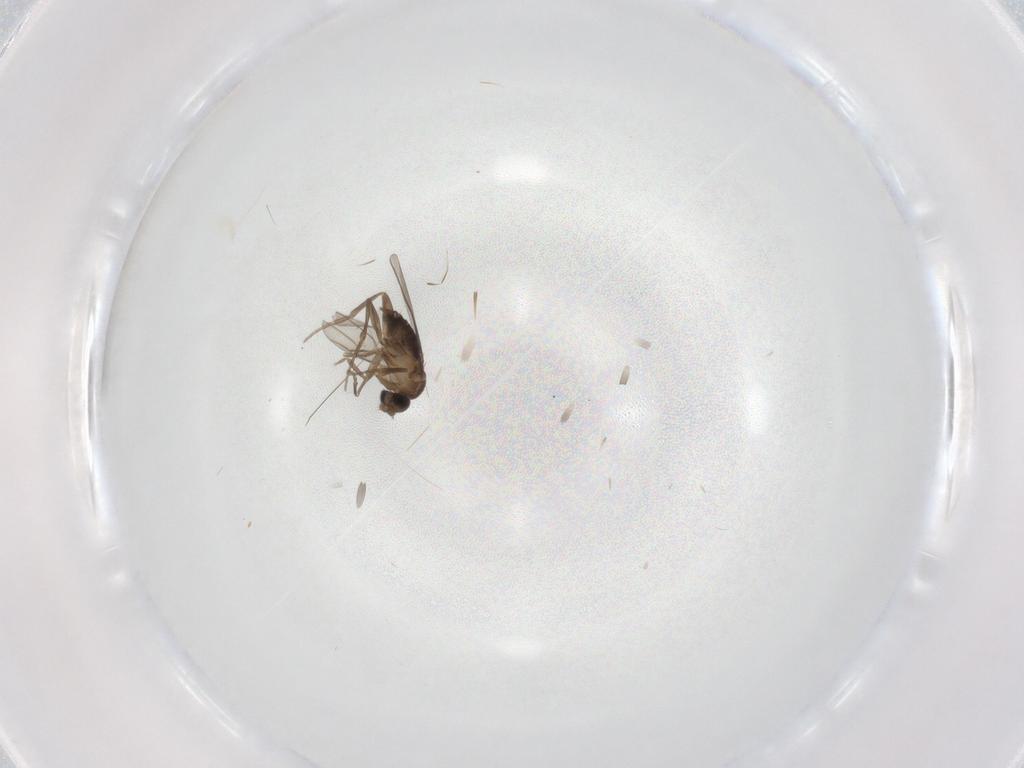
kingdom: Animalia
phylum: Arthropoda
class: Insecta
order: Diptera
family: Phoridae
